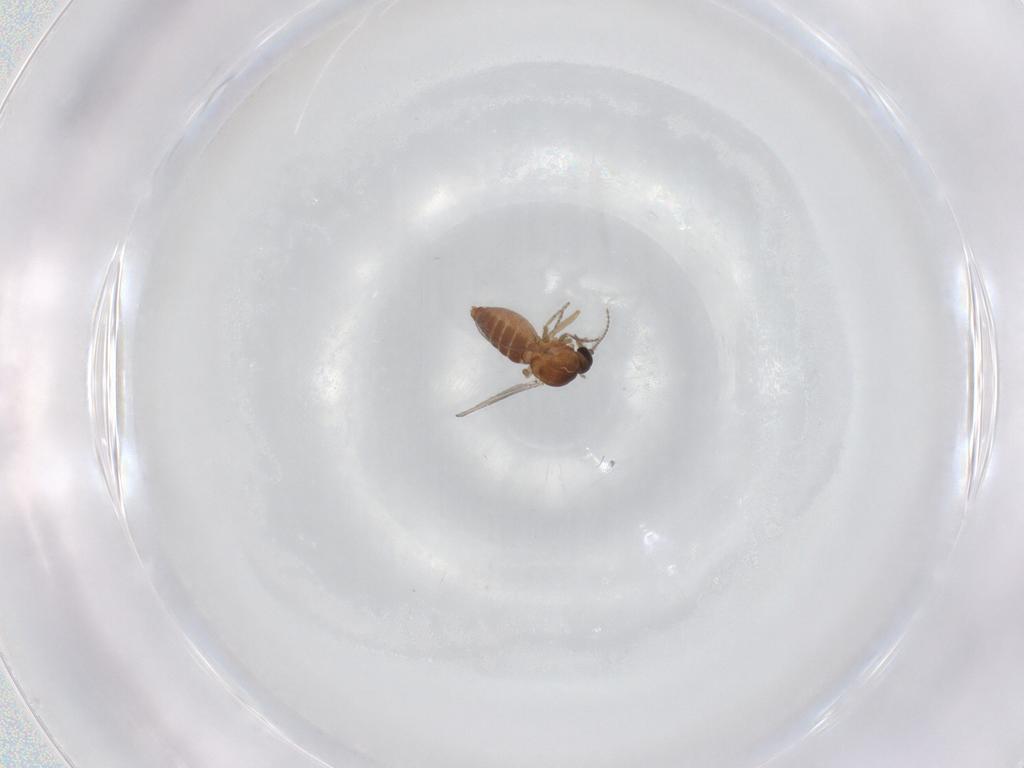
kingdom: Animalia
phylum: Arthropoda
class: Insecta
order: Diptera
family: Ceratopogonidae
